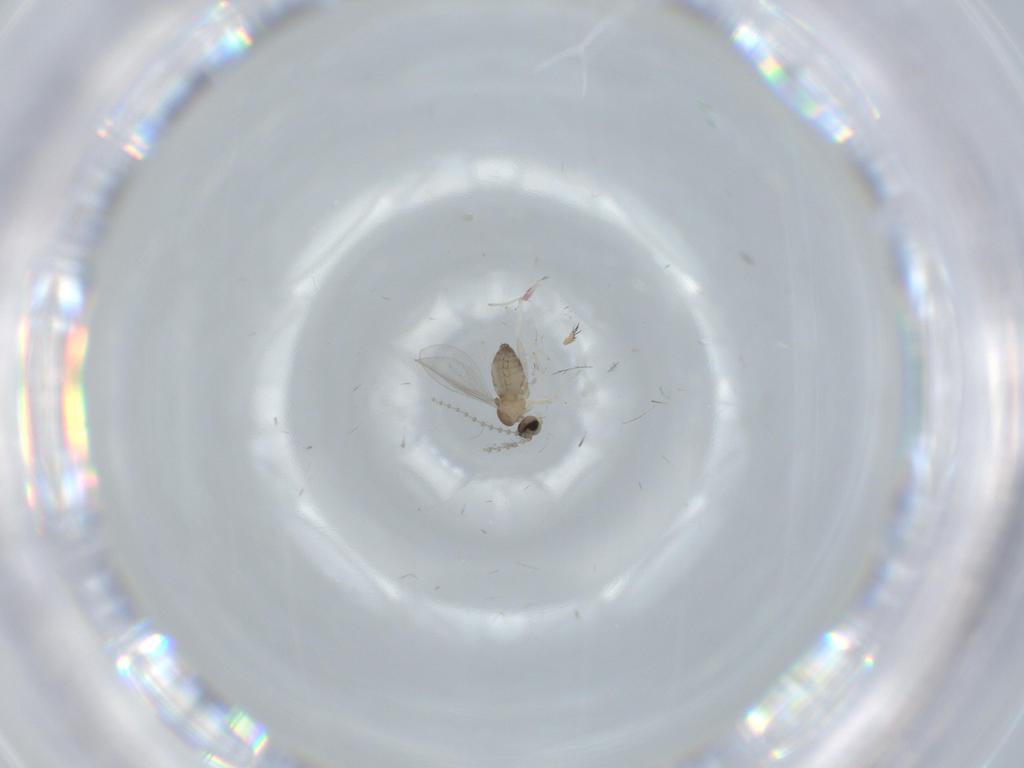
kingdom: Animalia
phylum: Arthropoda
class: Insecta
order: Diptera
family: Cecidomyiidae
